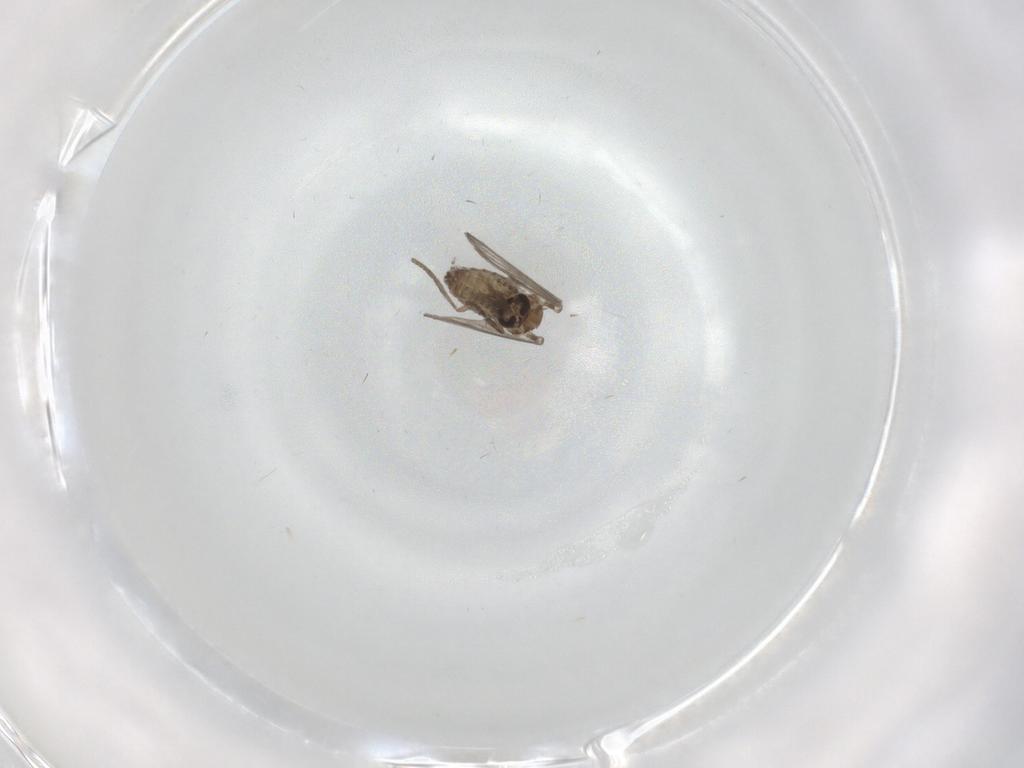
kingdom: Animalia
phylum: Arthropoda
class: Insecta
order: Diptera
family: Psychodidae
